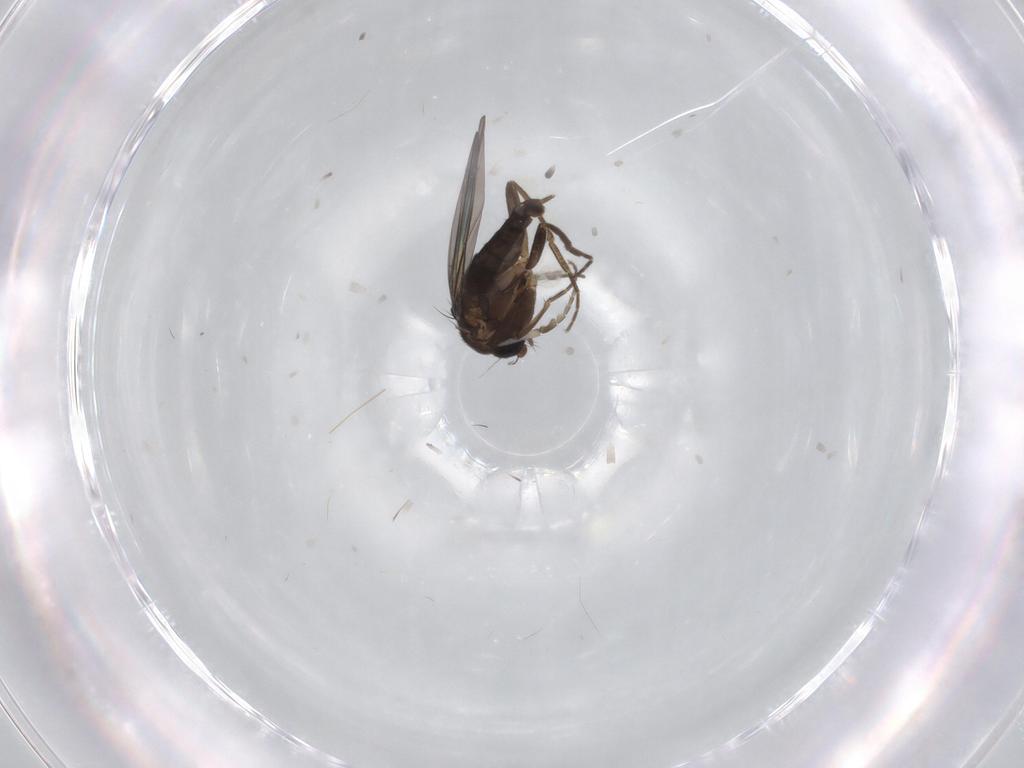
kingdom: Animalia
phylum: Arthropoda
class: Insecta
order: Diptera
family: Phoridae
